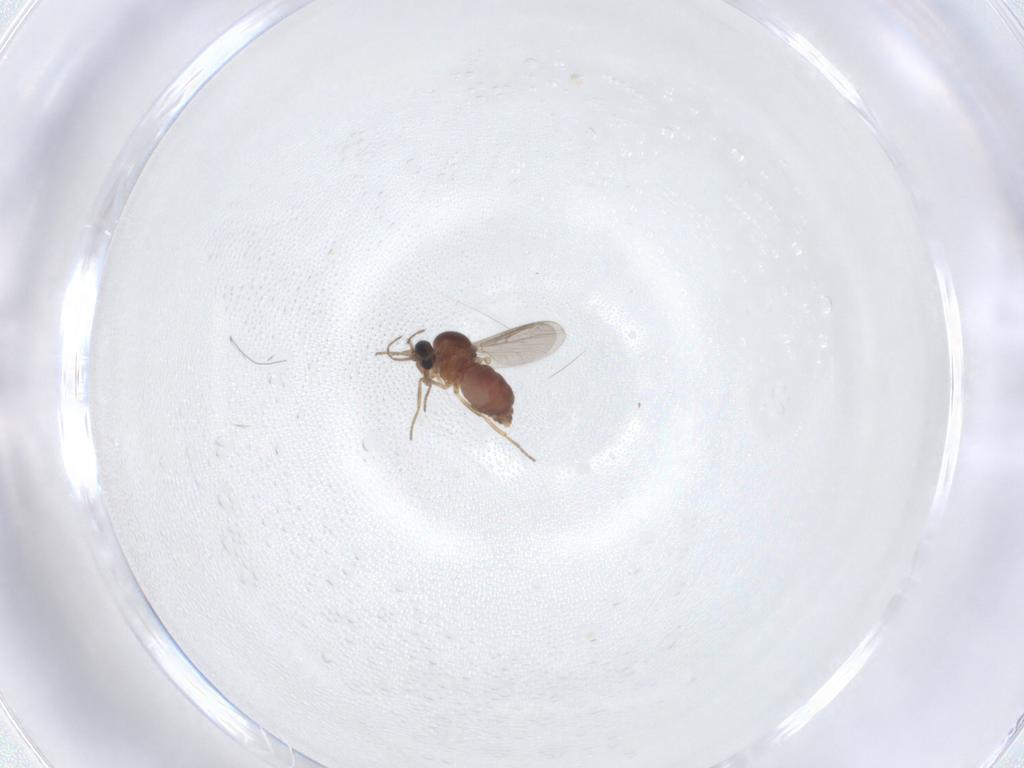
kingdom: Animalia
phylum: Arthropoda
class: Insecta
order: Diptera
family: Ceratopogonidae
